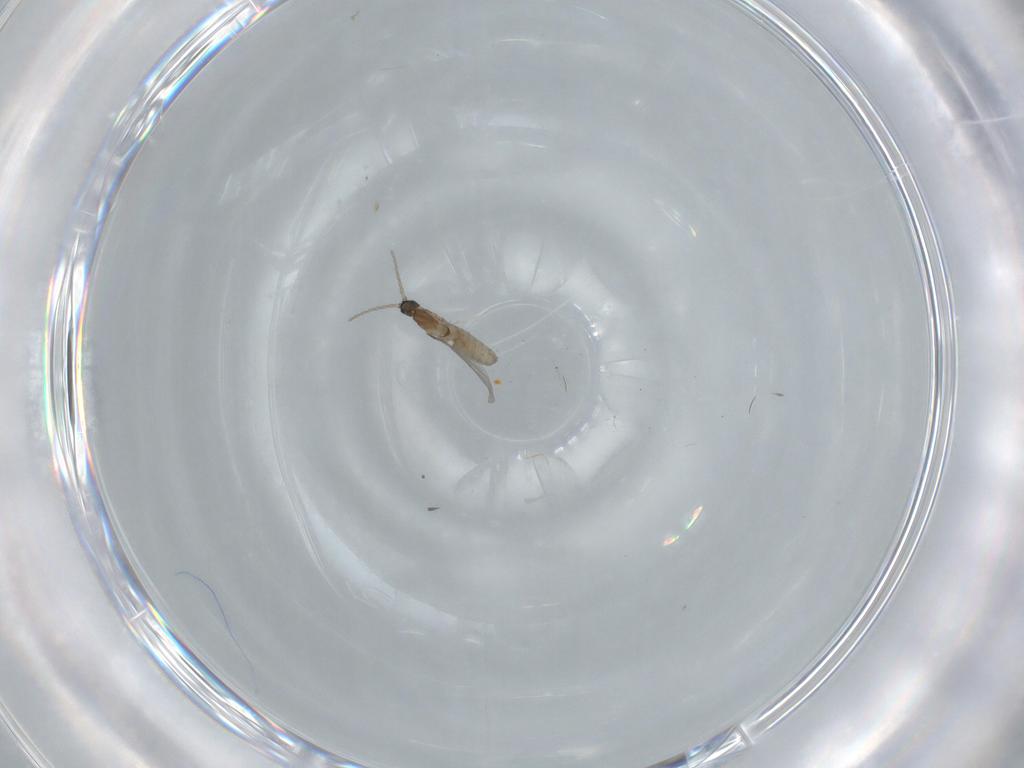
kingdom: Animalia
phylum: Arthropoda
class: Insecta
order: Diptera
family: Cecidomyiidae
